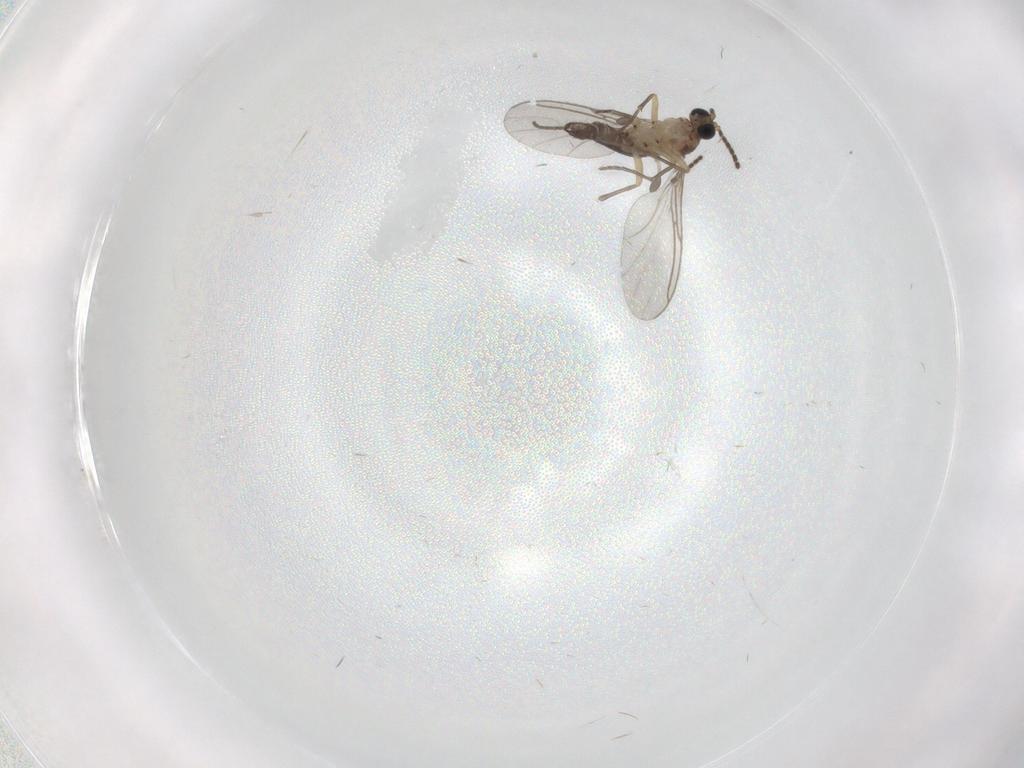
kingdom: Animalia
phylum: Arthropoda
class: Insecta
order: Diptera
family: Sciaridae
